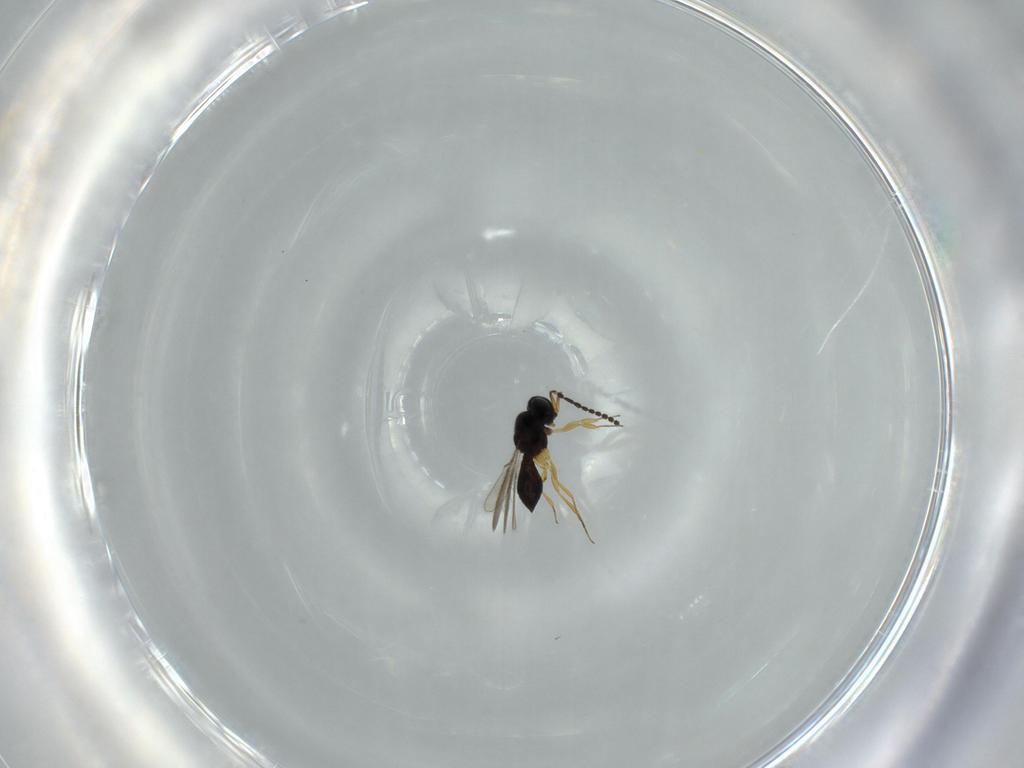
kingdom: Animalia
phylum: Arthropoda
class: Insecta
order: Hymenoptera
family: Scelionidae
